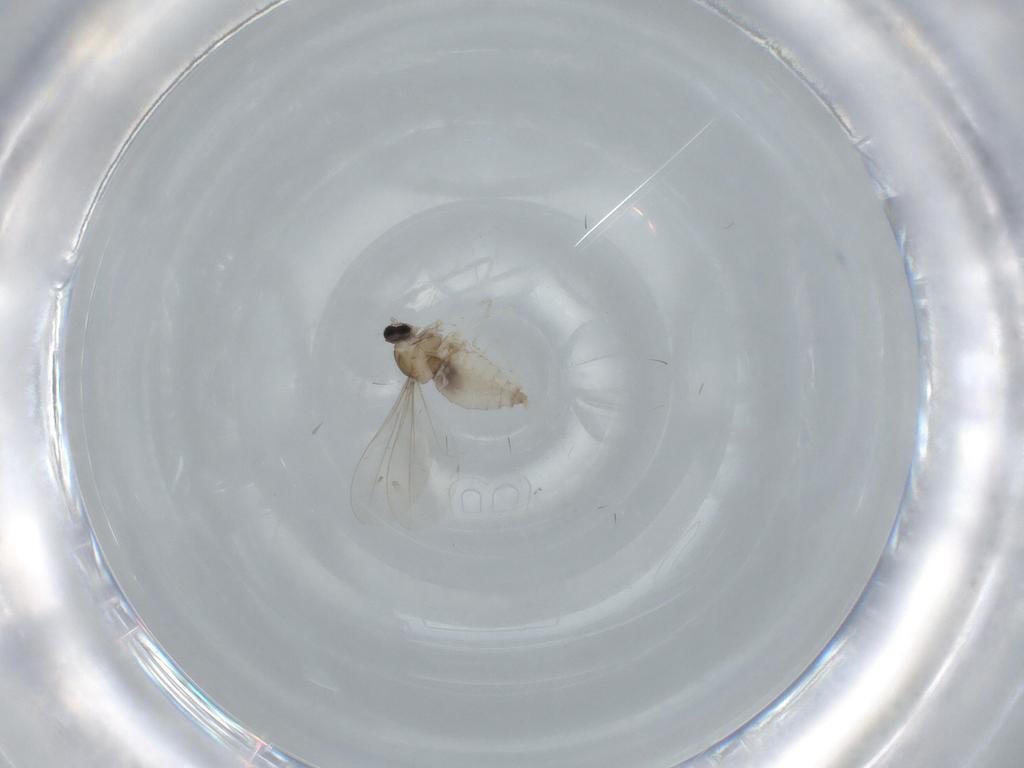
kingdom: Animalia
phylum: Arthropoda
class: Insecta
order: Diptera
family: Cecidomyiidae
